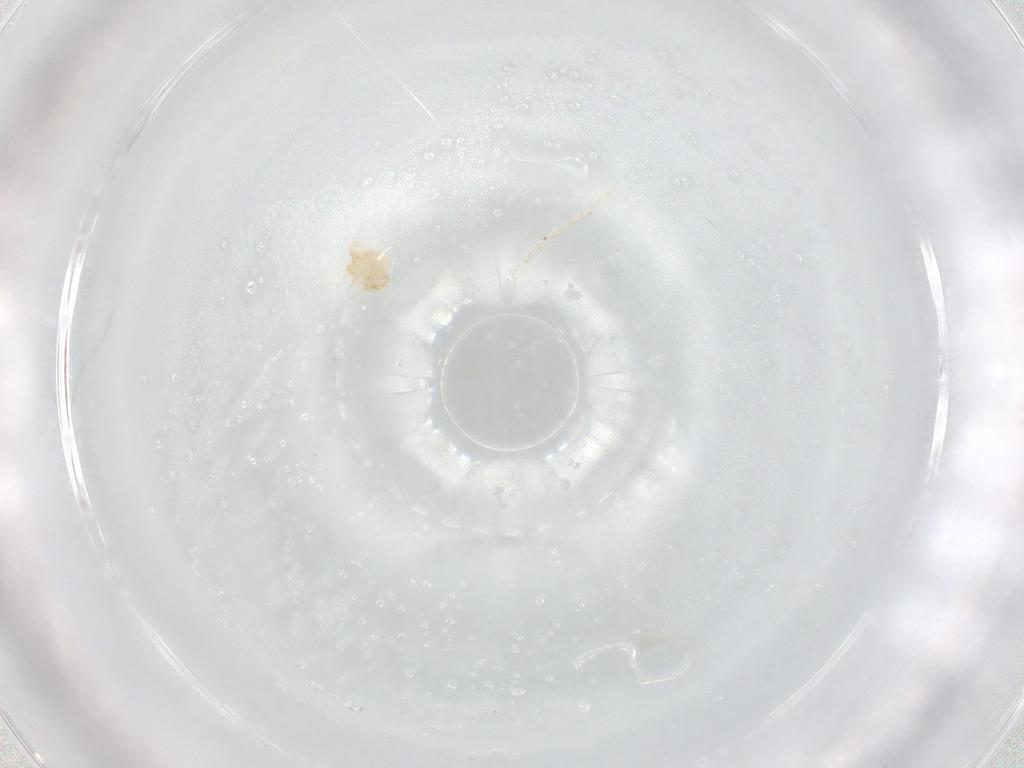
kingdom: Animalia
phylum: Arthropoda
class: Arachnida
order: Trombidiformes
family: Sperchontidae
